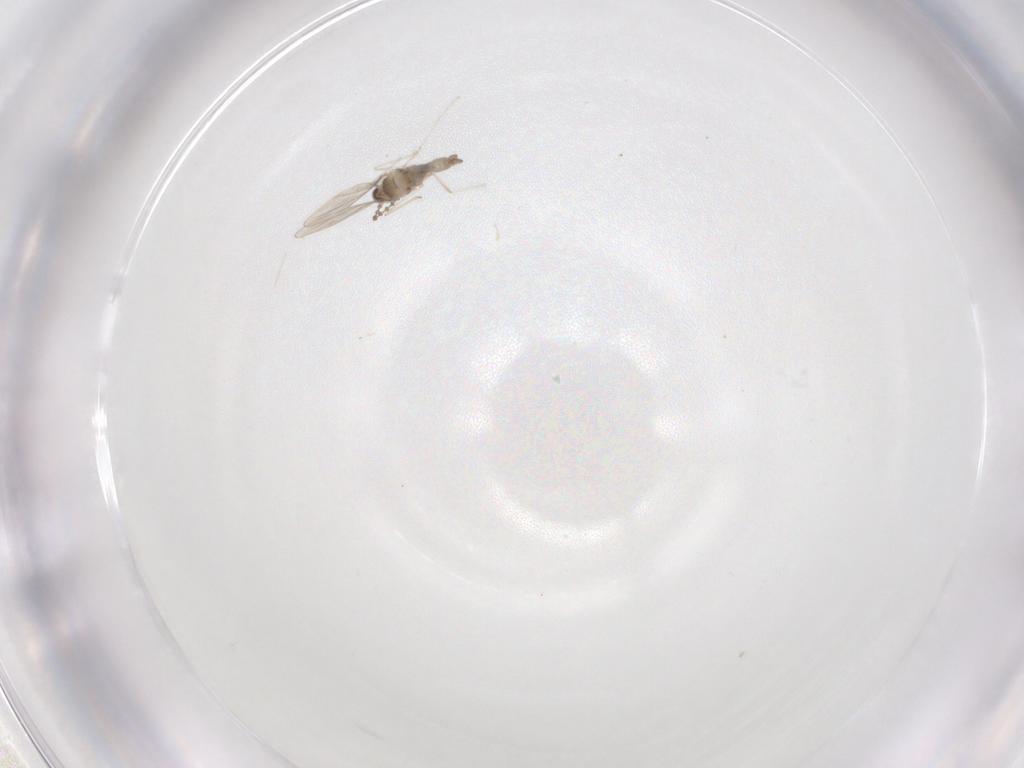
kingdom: Animalia
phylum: Arthropoda
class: Insecta
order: Diptera
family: Cecidomyiidae
